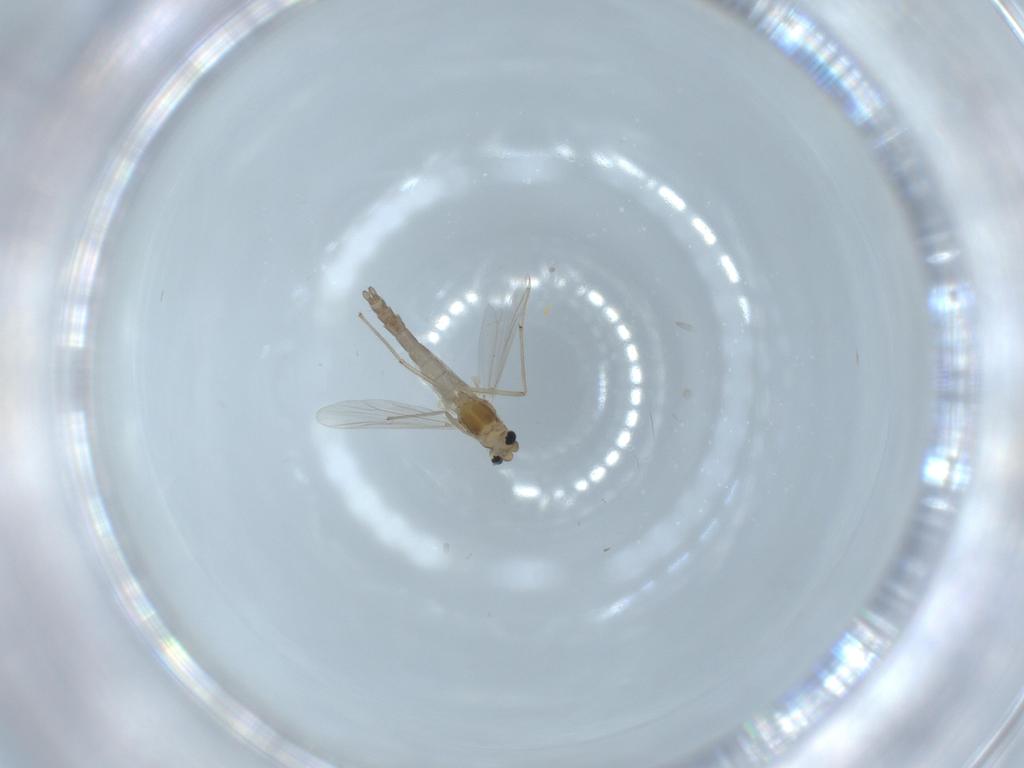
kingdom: Animalia
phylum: Arthropoda
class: Insecta
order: Diptera
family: Chironomidae
